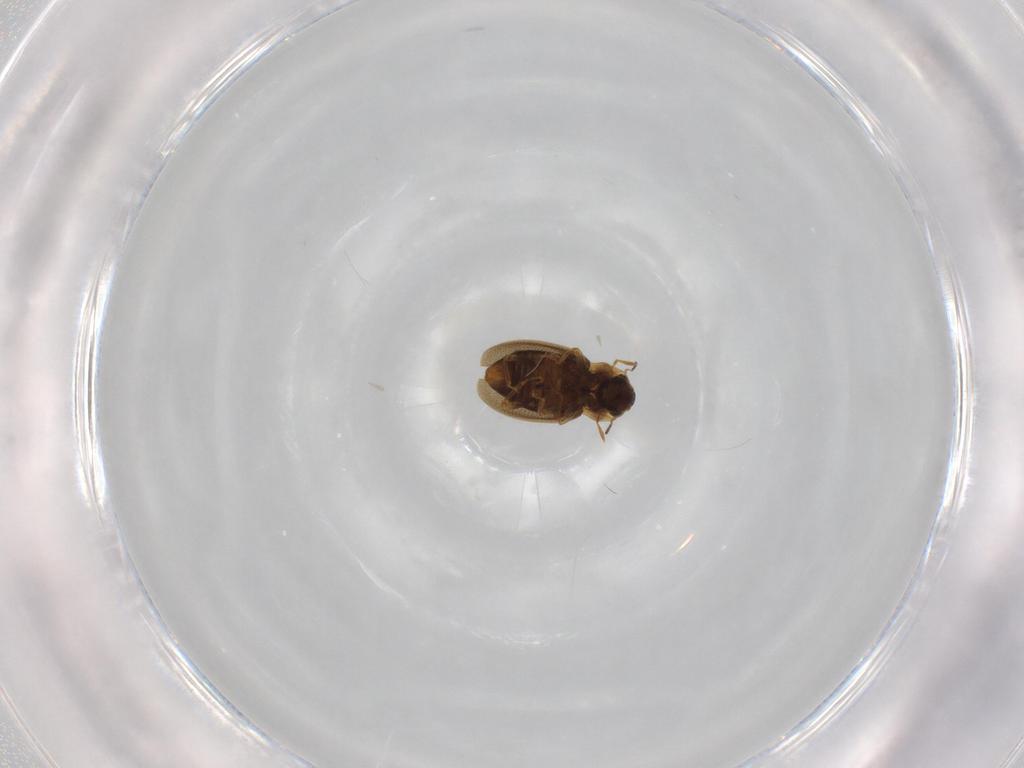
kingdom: Animalia
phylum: Arthropoda
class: Insecta
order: Coleoptera
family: Hydraenidae
